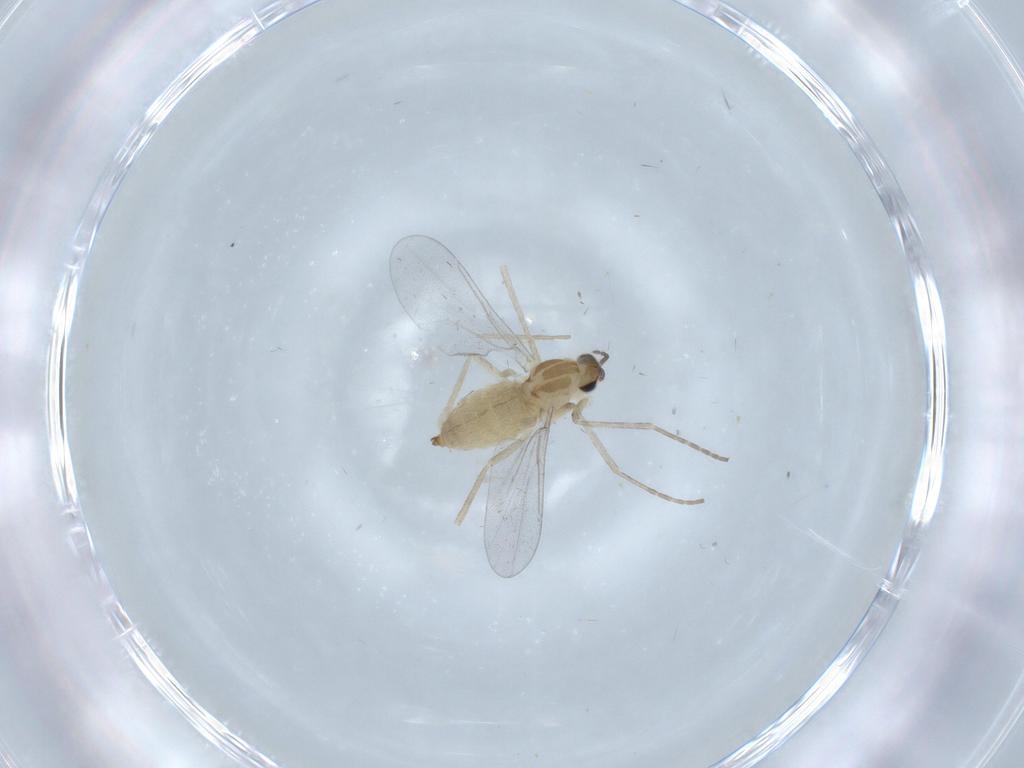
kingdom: Animalia
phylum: Arthropoda
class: Insecta
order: Diptera
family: Cecidomyiidae
